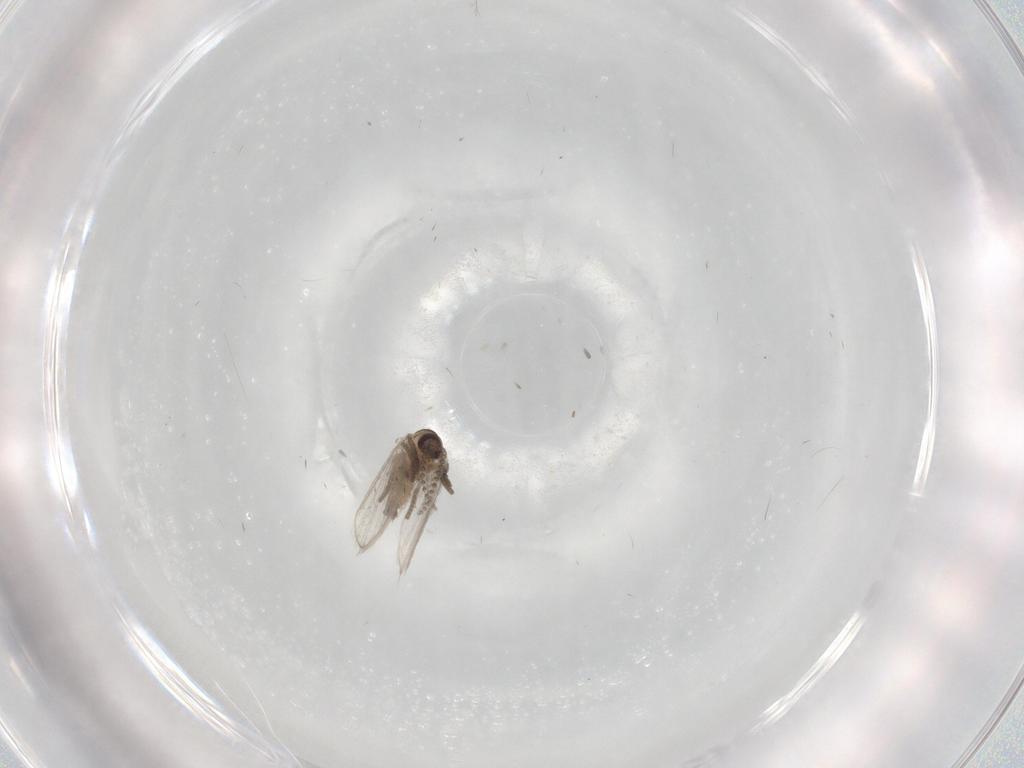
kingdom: Animalia
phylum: Arthropoda
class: Insecta
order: Diptera
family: Psychodidae
